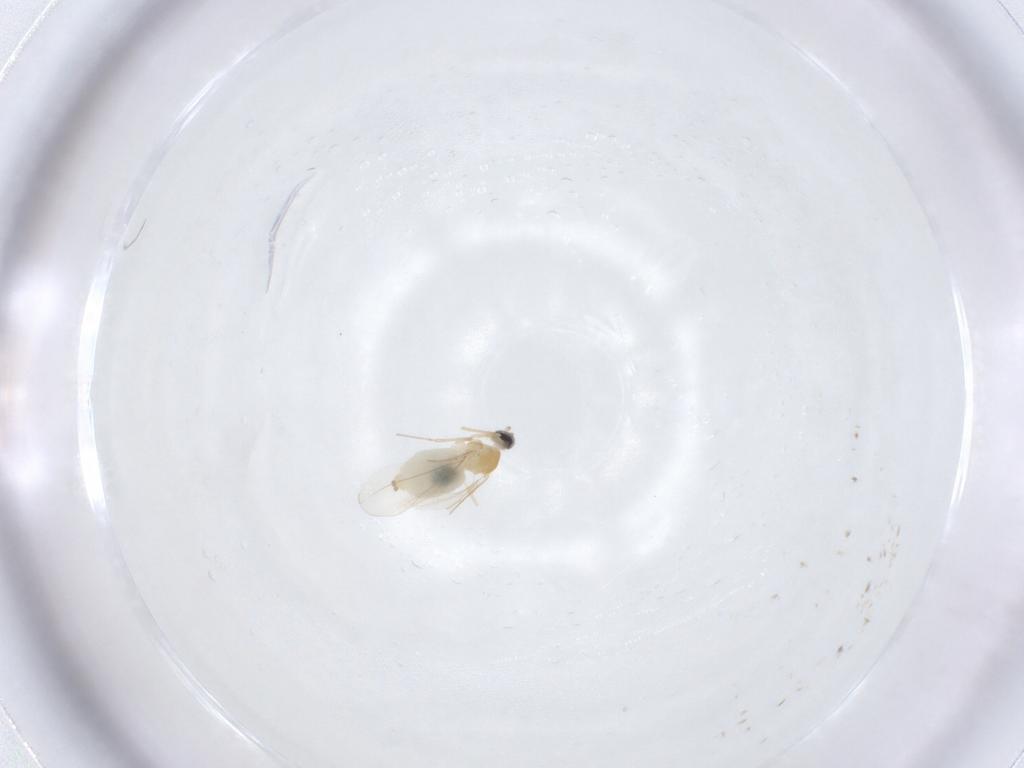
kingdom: Animalia
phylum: Arthropoda
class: Insecta
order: Diptera
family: Cecidomyiidae
